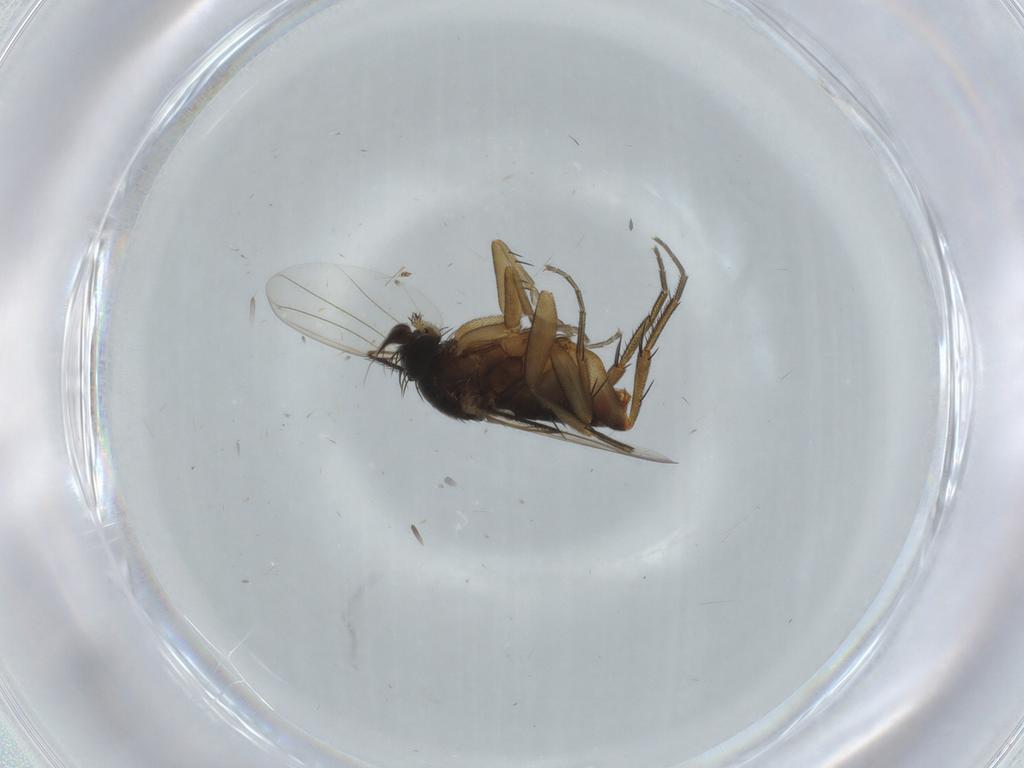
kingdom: Animalia
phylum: Arthropoda
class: Insecta
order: Diptera
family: Phoridae
